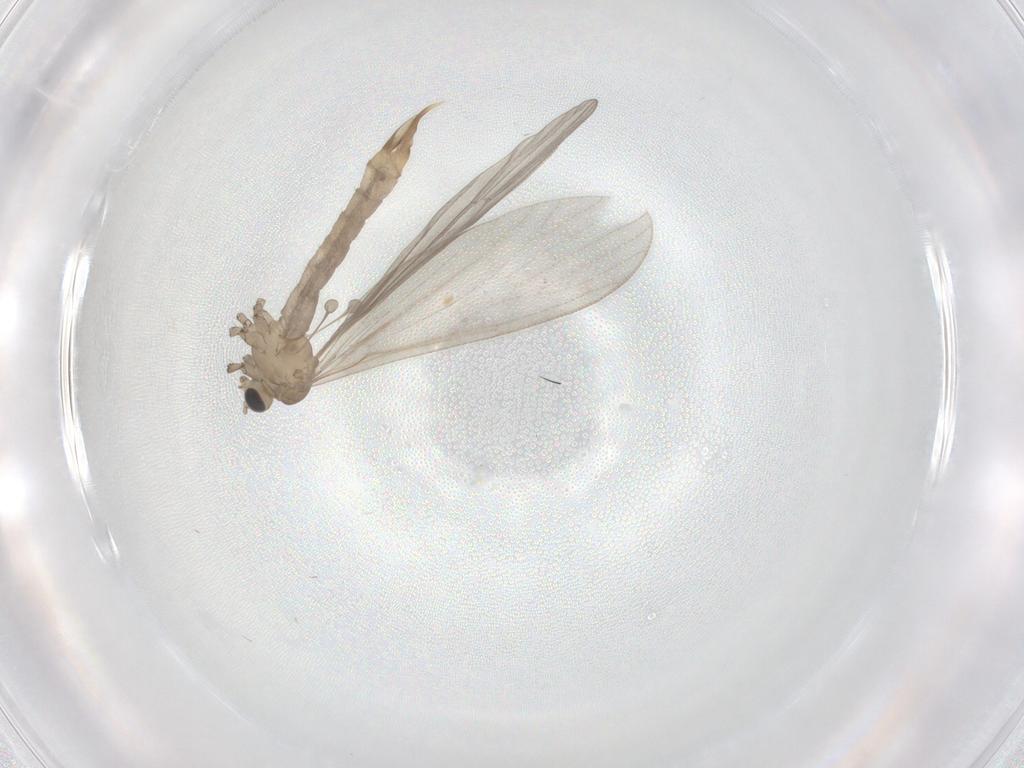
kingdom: Animalia
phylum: Arthropoda
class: Insecta
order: Diptera
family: Limoniidae
